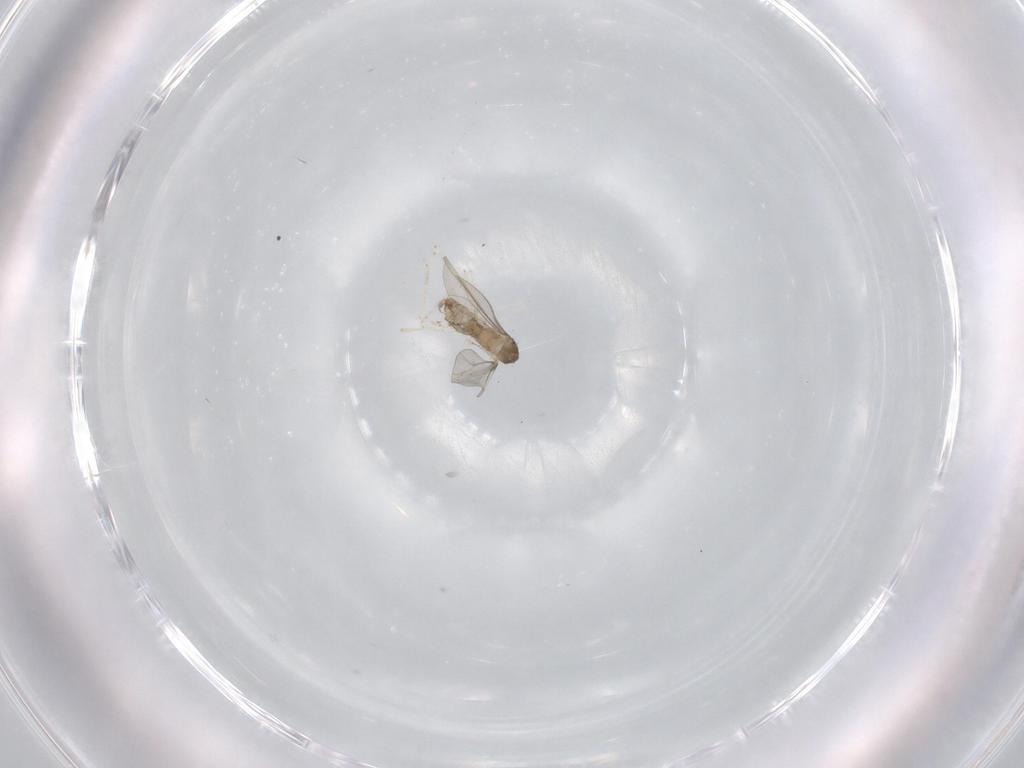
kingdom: Animalia
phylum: Arthropoda
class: Insecta
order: Diptera
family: Cecidomyiidae
